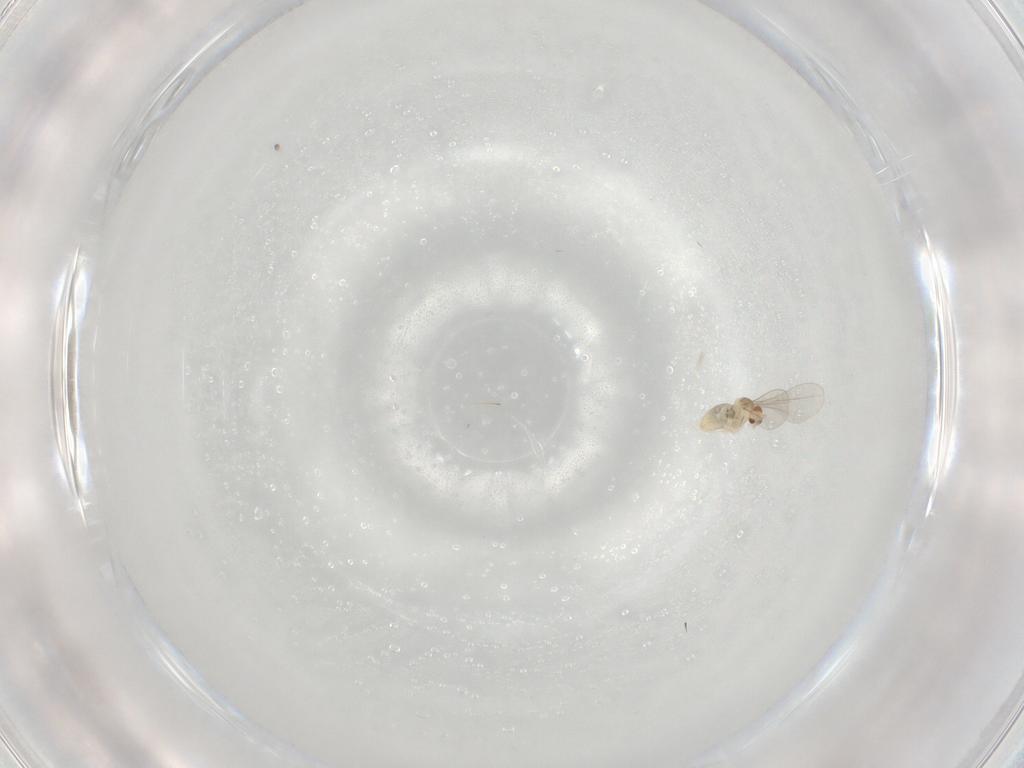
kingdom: Animalia
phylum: Arthropoda
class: Insecta
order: Diptera
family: Cecidomyiidae
